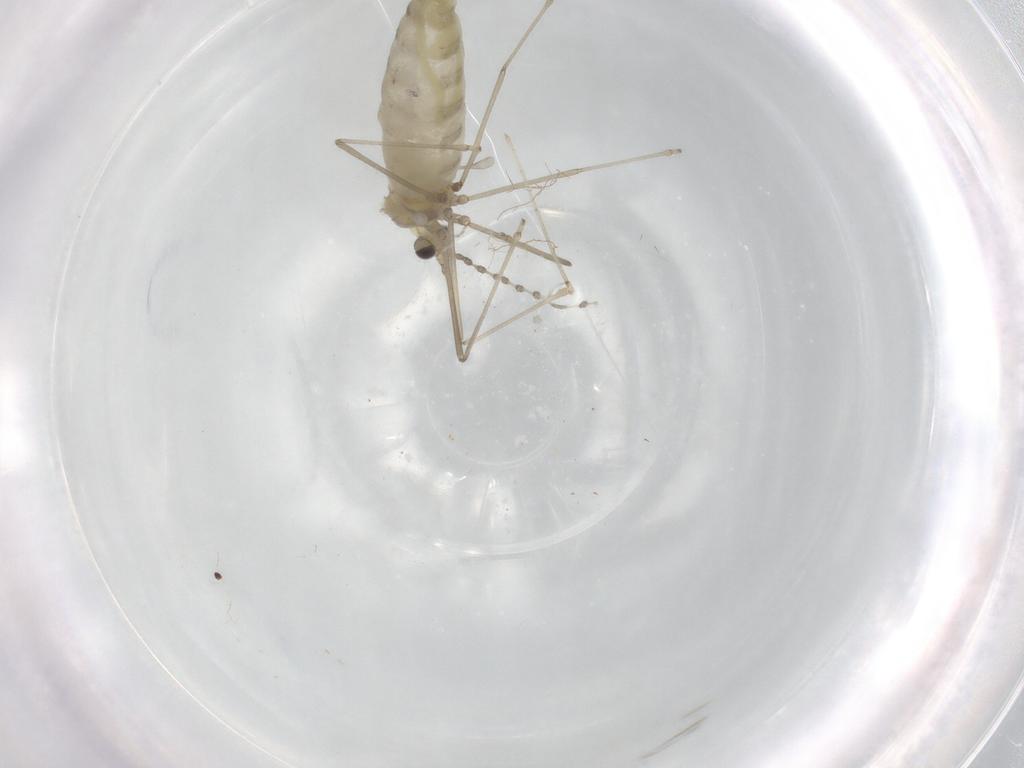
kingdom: Animalia
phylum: Arthropoda
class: Insecta
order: Diptera
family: Cecidomyiidae
